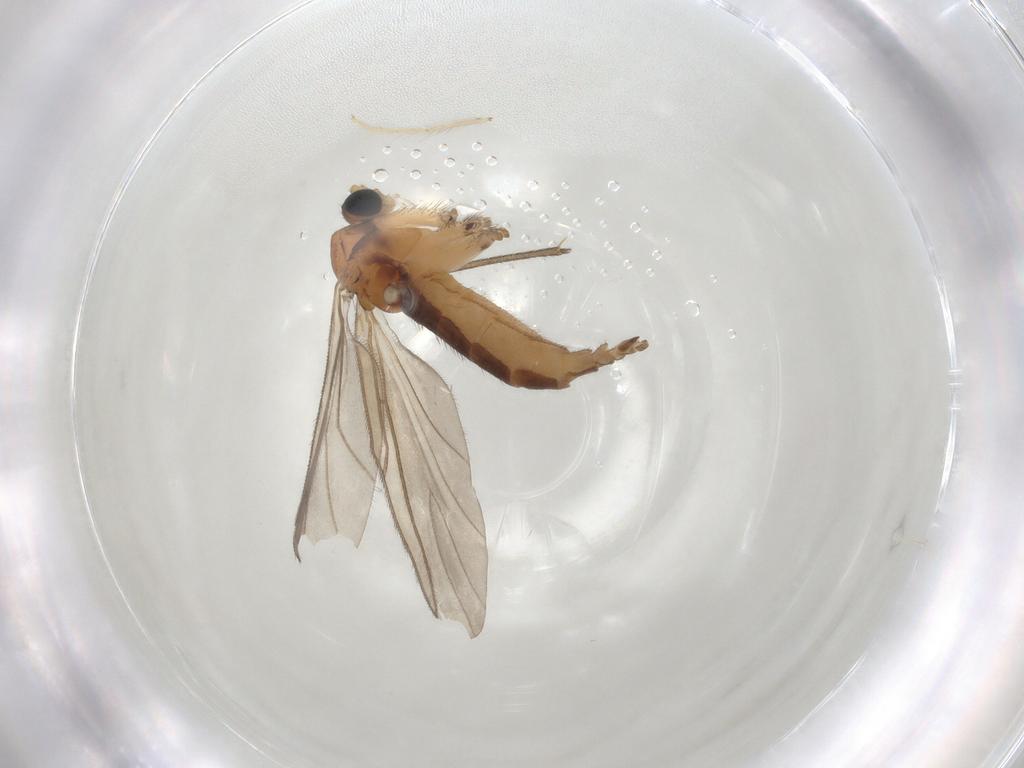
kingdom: Animalia
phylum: Arthropoda
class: Insecta
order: Diptera
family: Sciaridae
